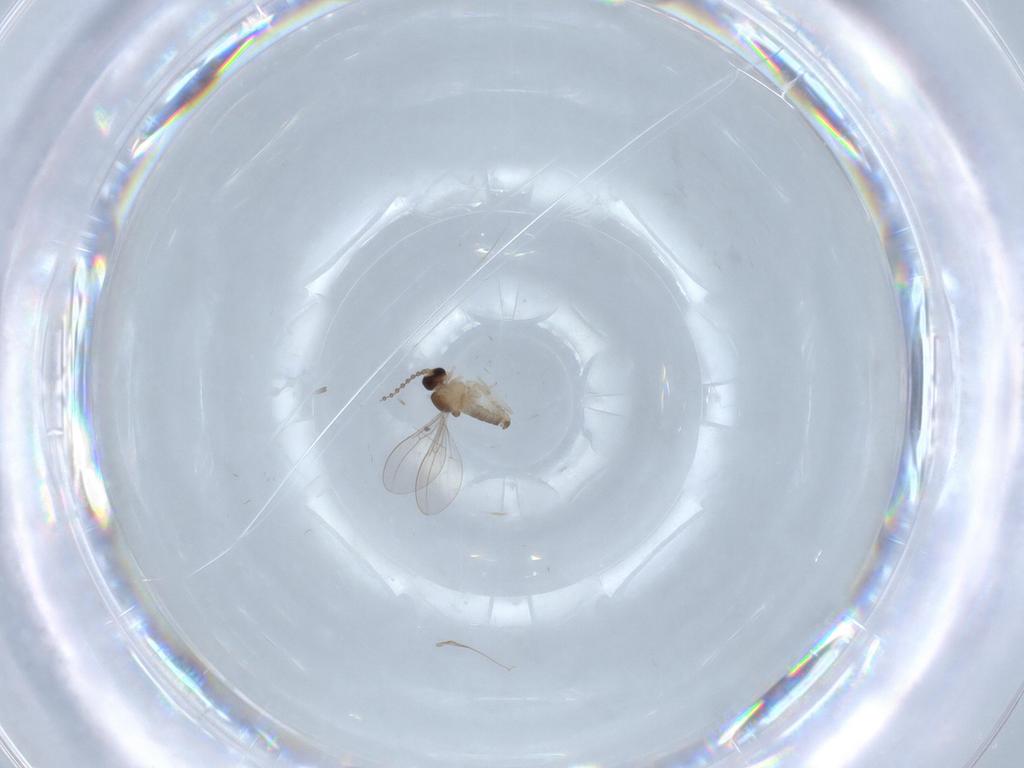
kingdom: Animalia
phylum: Arthropoda
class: Insecta
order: Diptera
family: Cecidomyiidae
